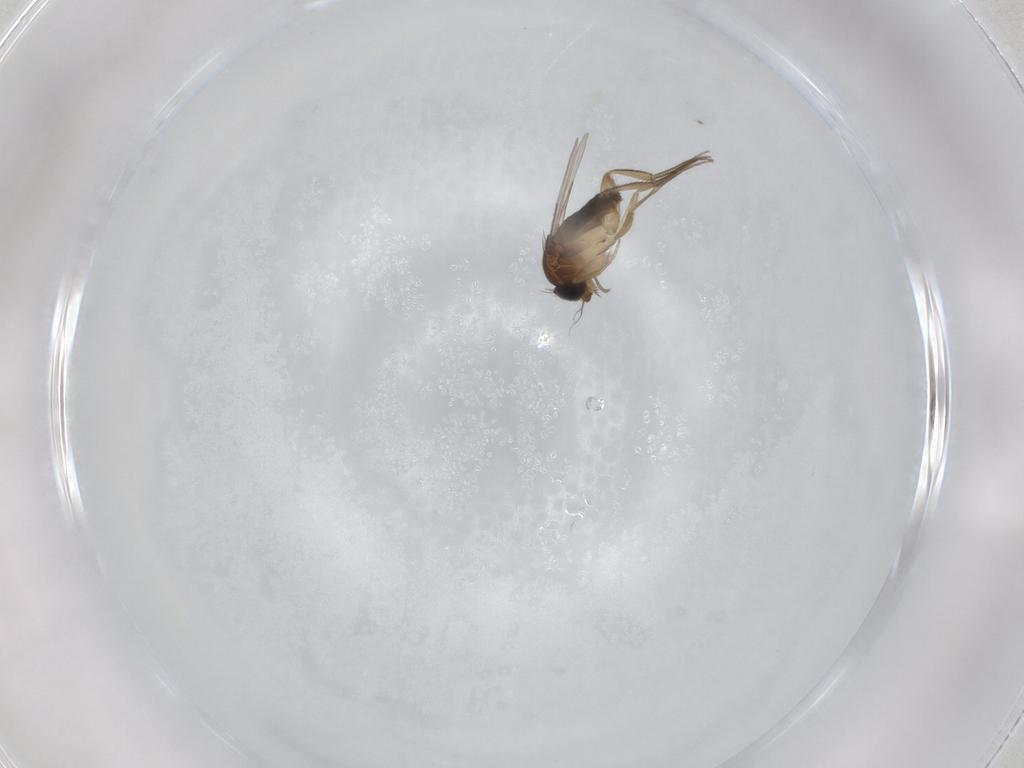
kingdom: Animalia
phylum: Arthropoda
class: Insecta
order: Diptera
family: Phoridae
